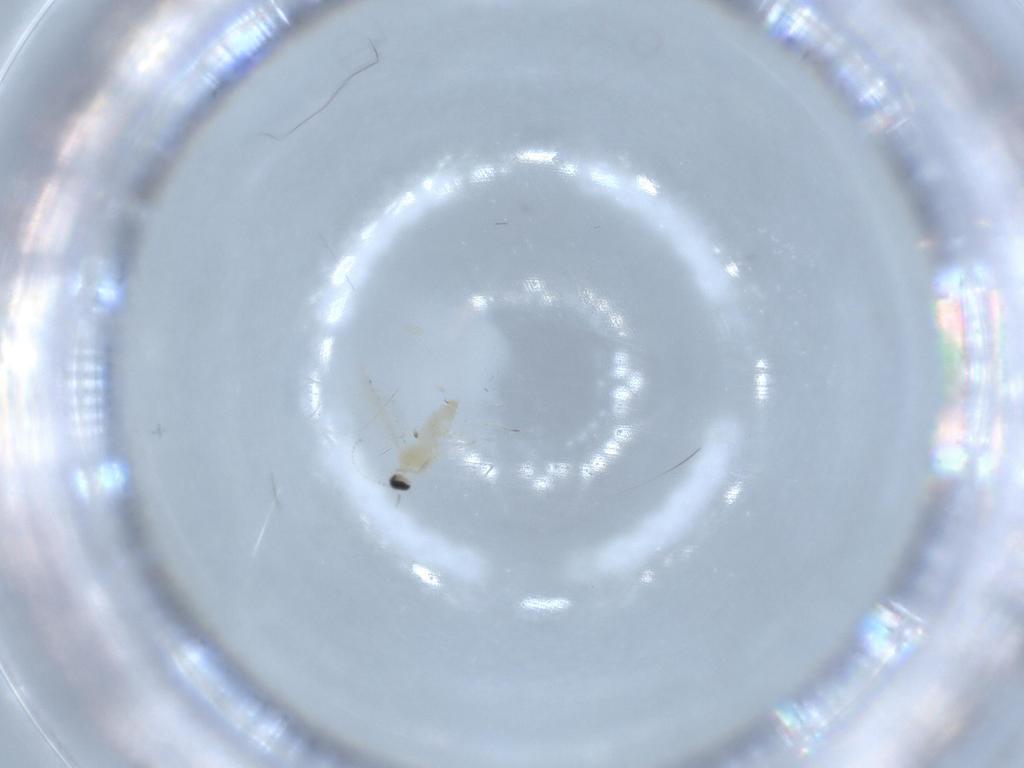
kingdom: Animalia
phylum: Arthropoda
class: Insecta
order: Diptera
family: Cecidomyiidae
